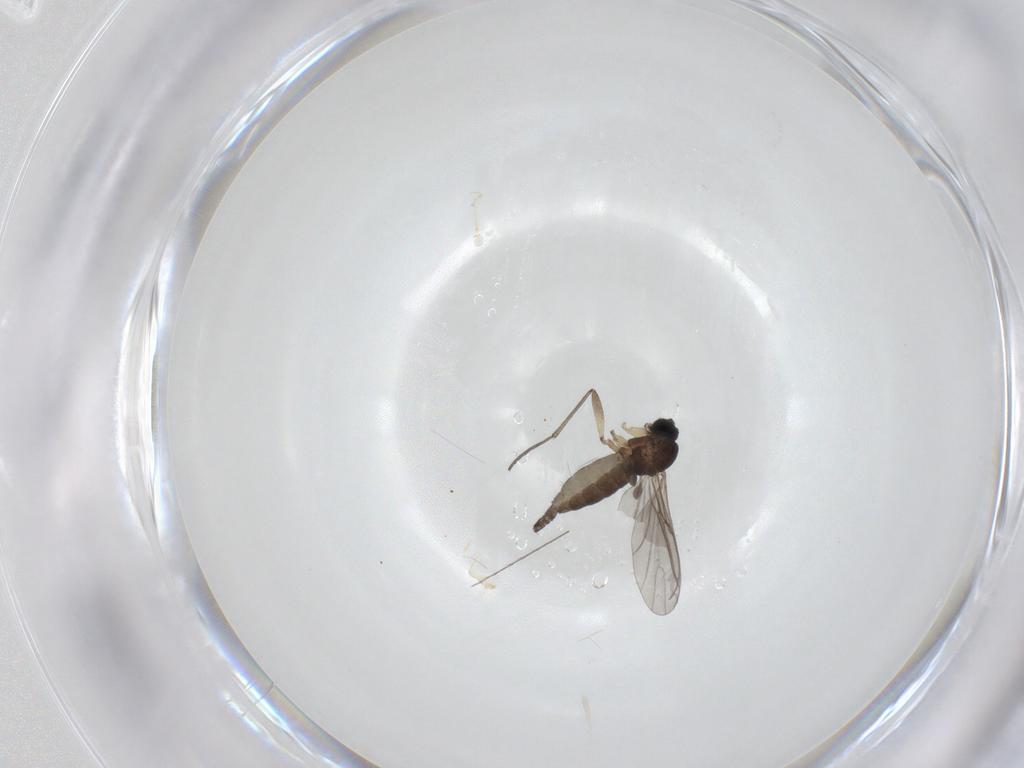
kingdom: Animalia
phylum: Arthropoda
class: Insecta
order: Diptera
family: Sciaridae
